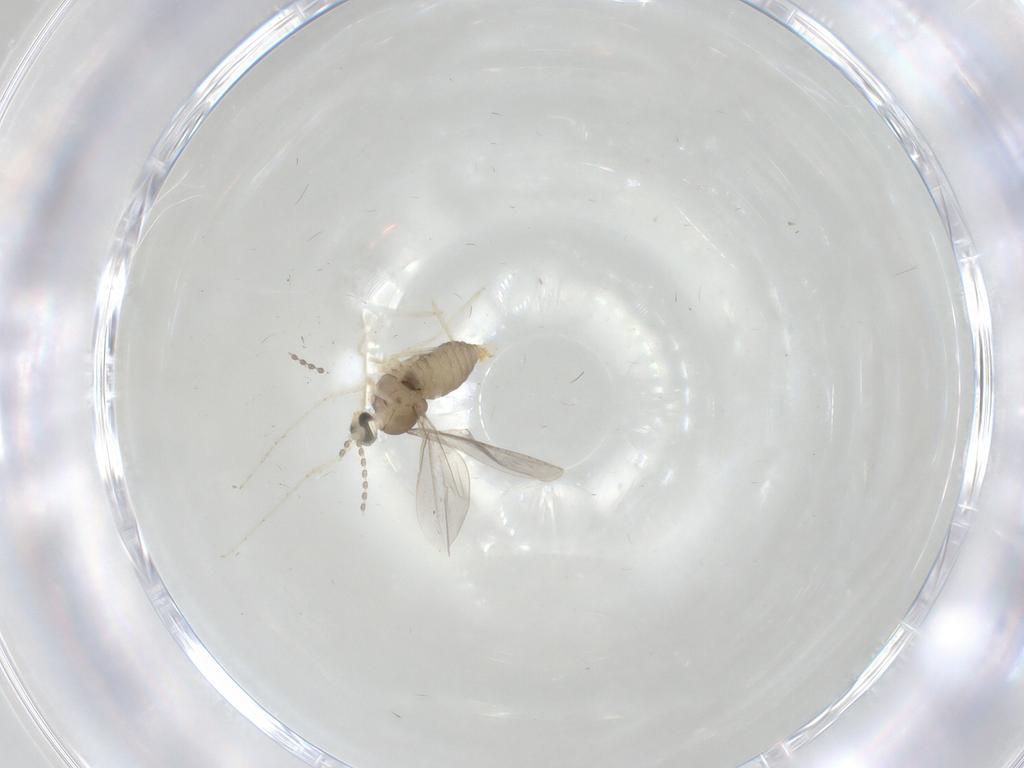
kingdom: Animalia
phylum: Arthropoda
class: Insecta
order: Diptera
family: Cecidomyiidae
